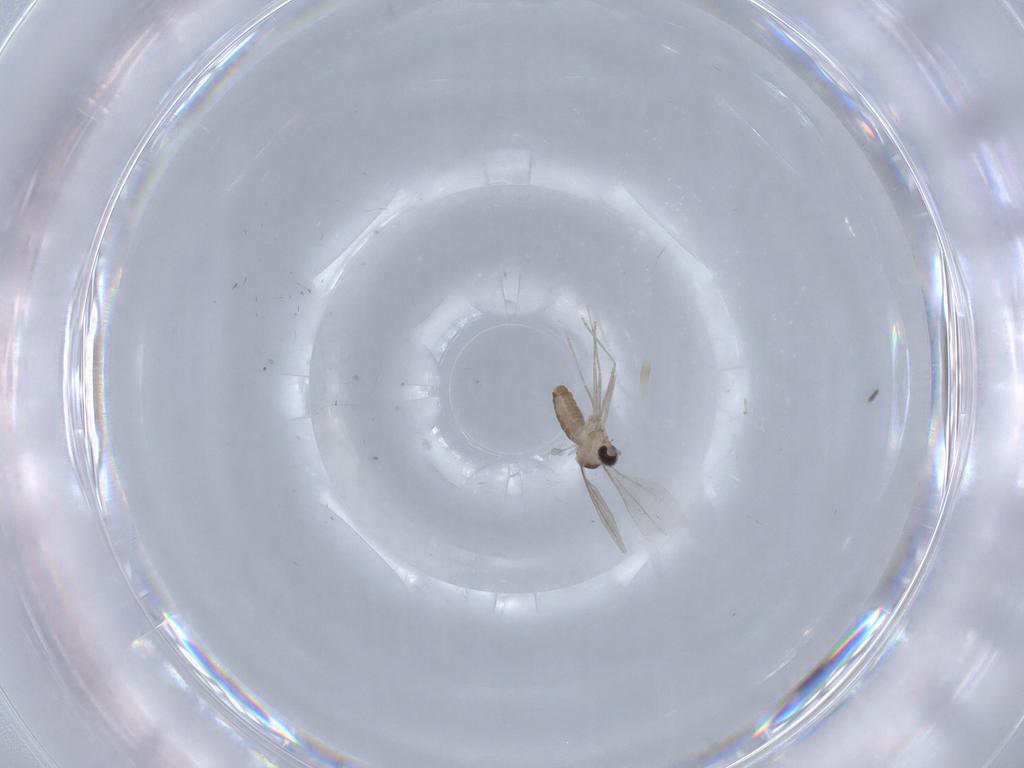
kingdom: Animalia
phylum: Arthropoda
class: Insecta
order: Diptera
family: Cecidomyiidae
